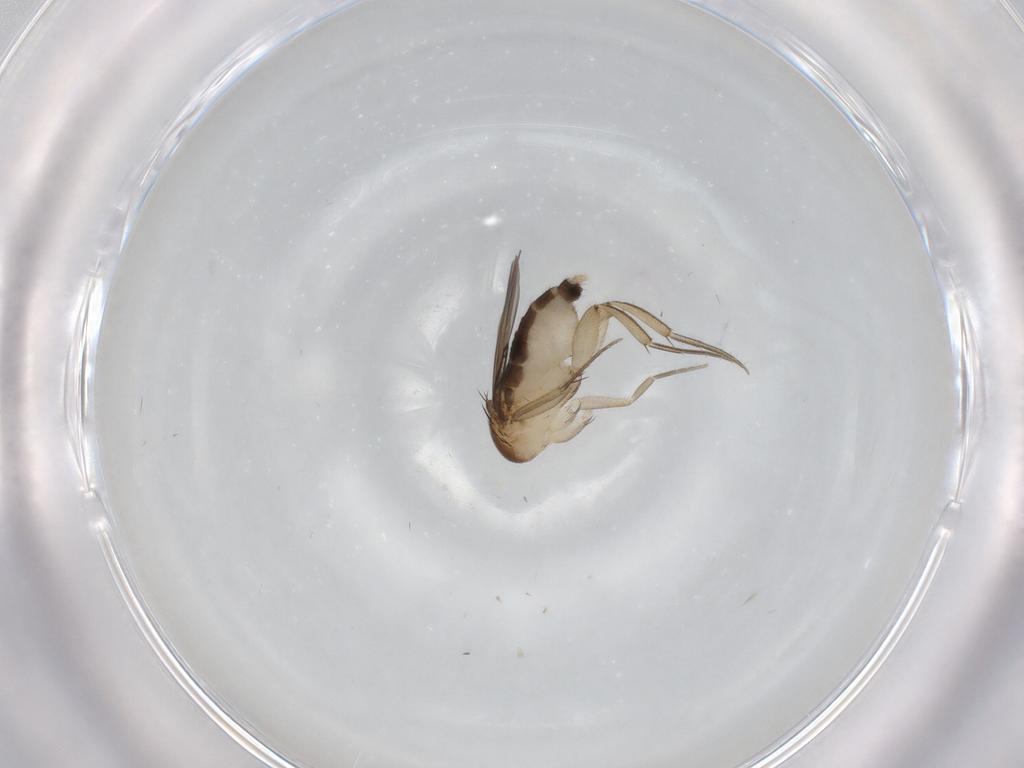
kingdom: Animalia
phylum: Arthropoda
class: Insecta
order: Diptera
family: Phoridae
